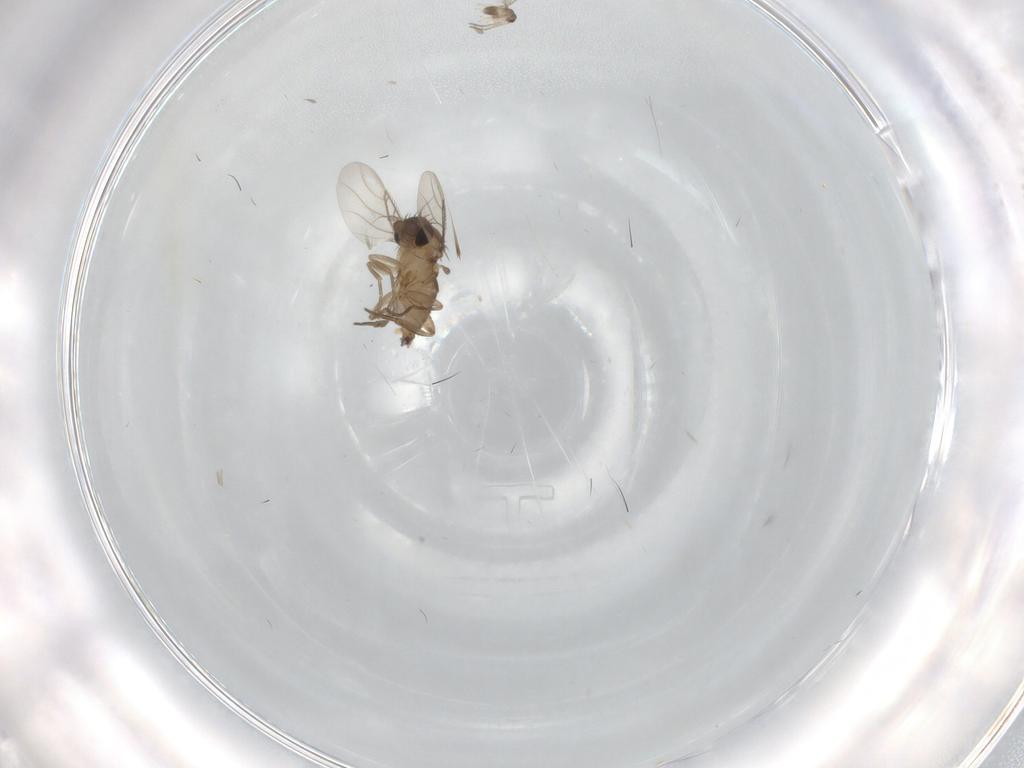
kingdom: Animalia
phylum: Arthropoda
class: Insecta
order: Diptera
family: Phoridae
